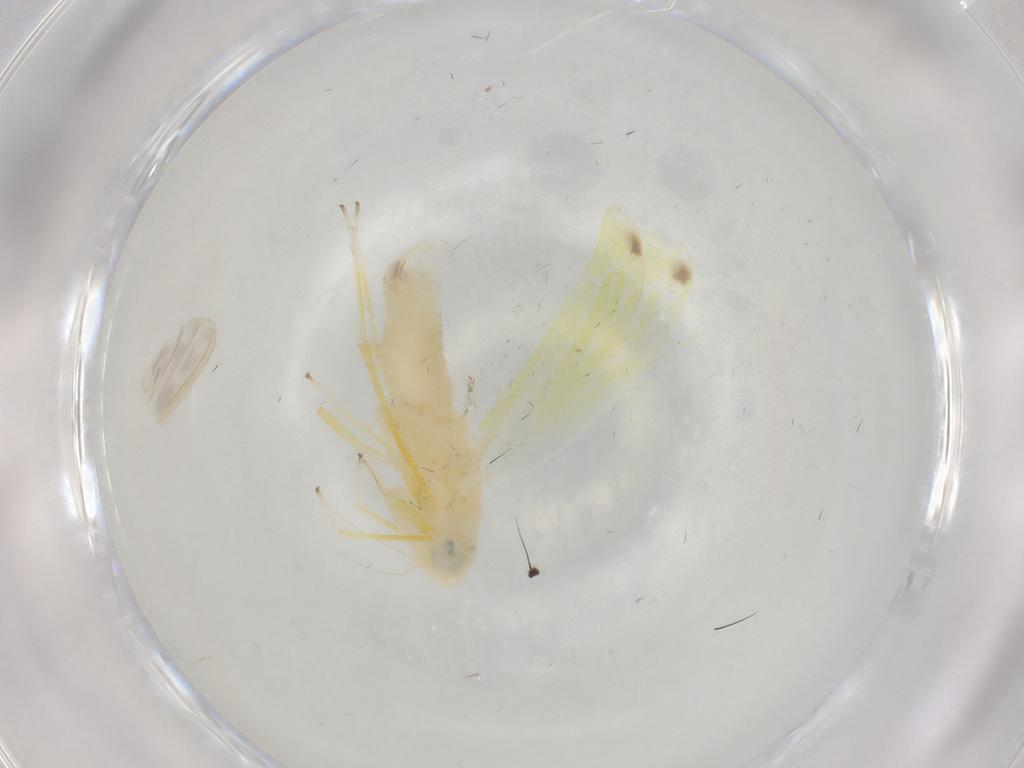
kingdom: Animalia
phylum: Arthropoda
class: Insecta
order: Hemiptera
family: Cicadellidae
